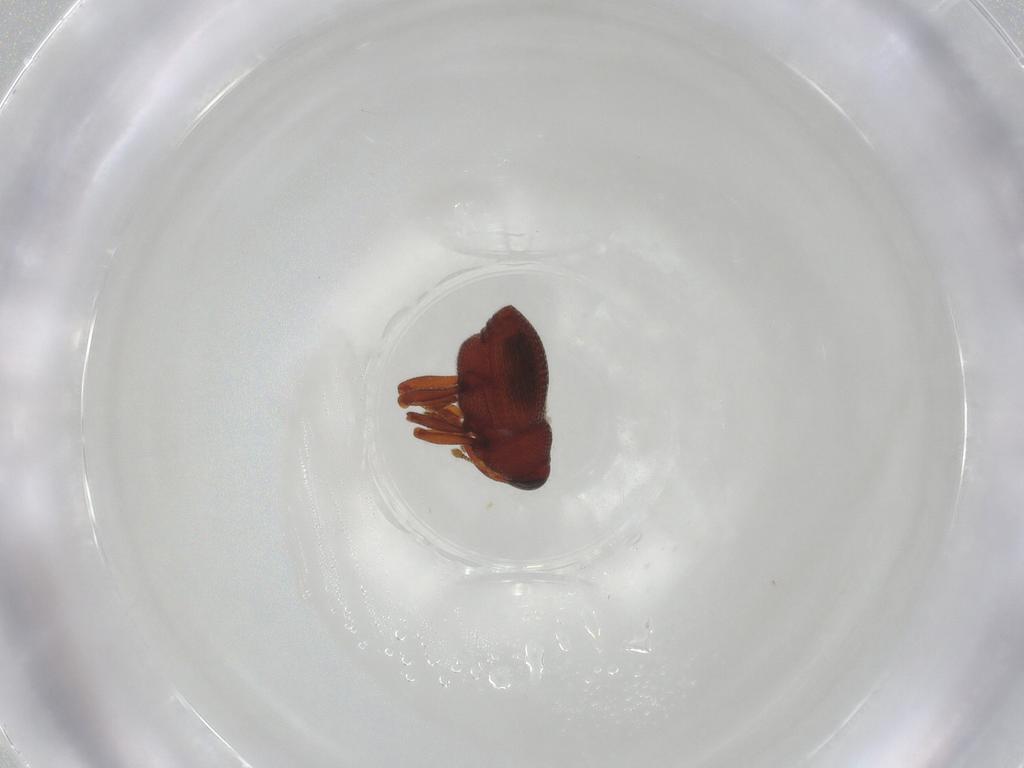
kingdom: Animalia
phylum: Arthropoda
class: Insecta
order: Coleoptera
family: Curculionidae
